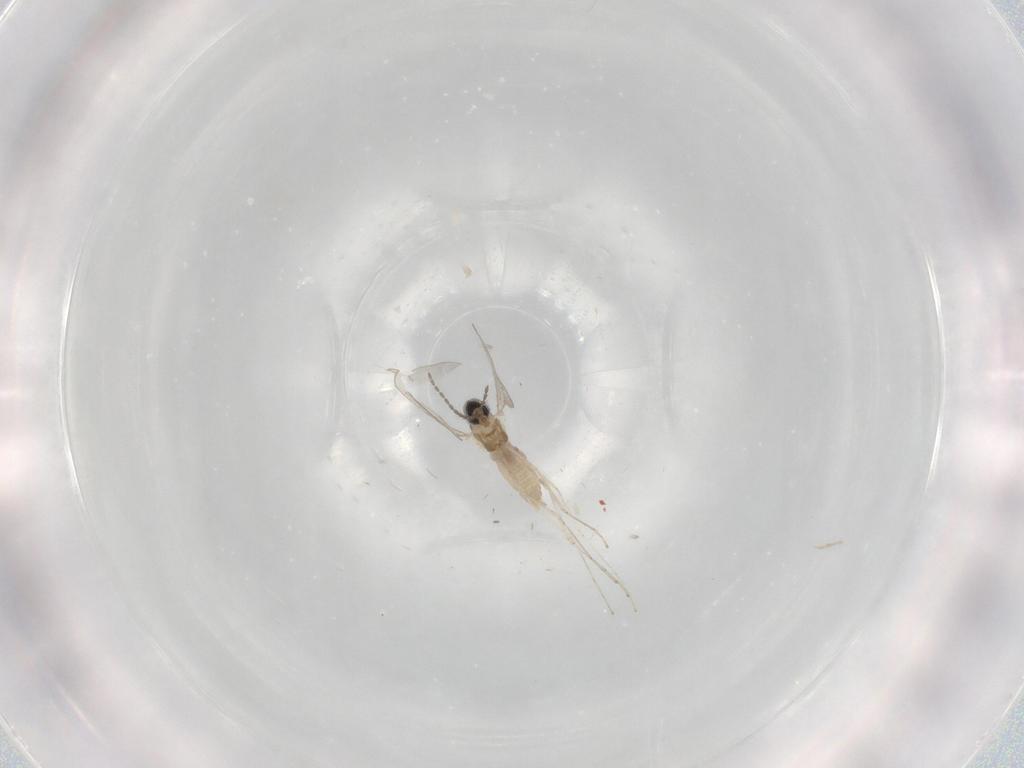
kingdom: Animalia
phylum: Arthropoda
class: Insecta
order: Diptera
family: Cecidomyiidae
